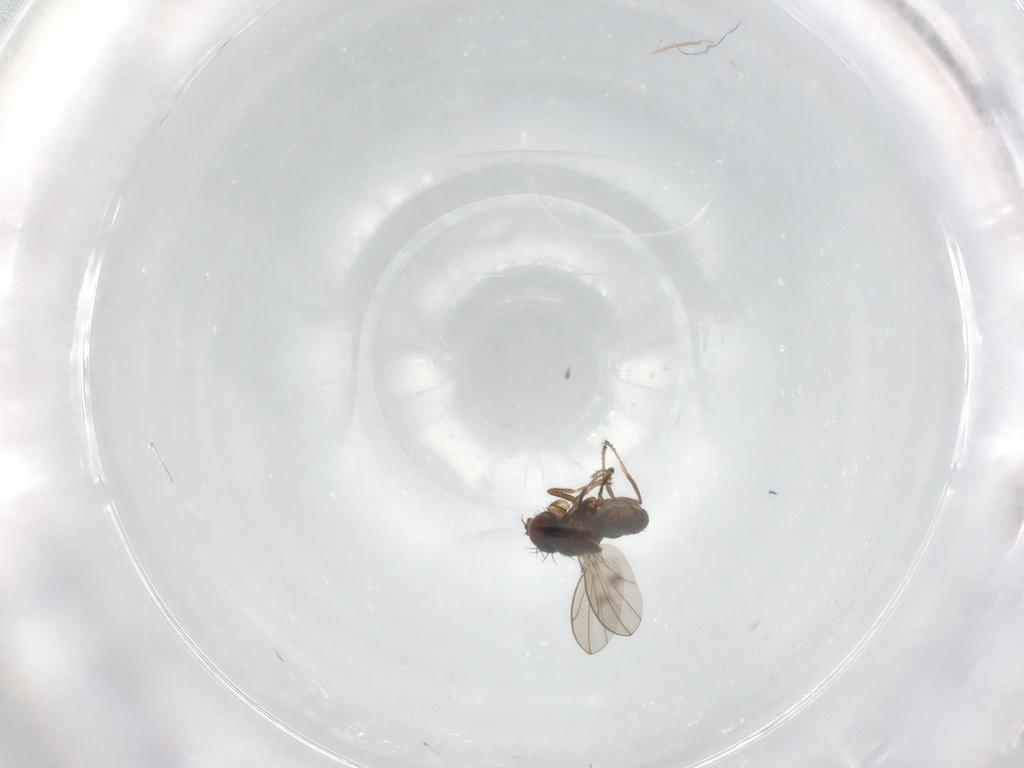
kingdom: Animalia
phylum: Arthropoda
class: Insecta
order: Diptera
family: Ephydridae
